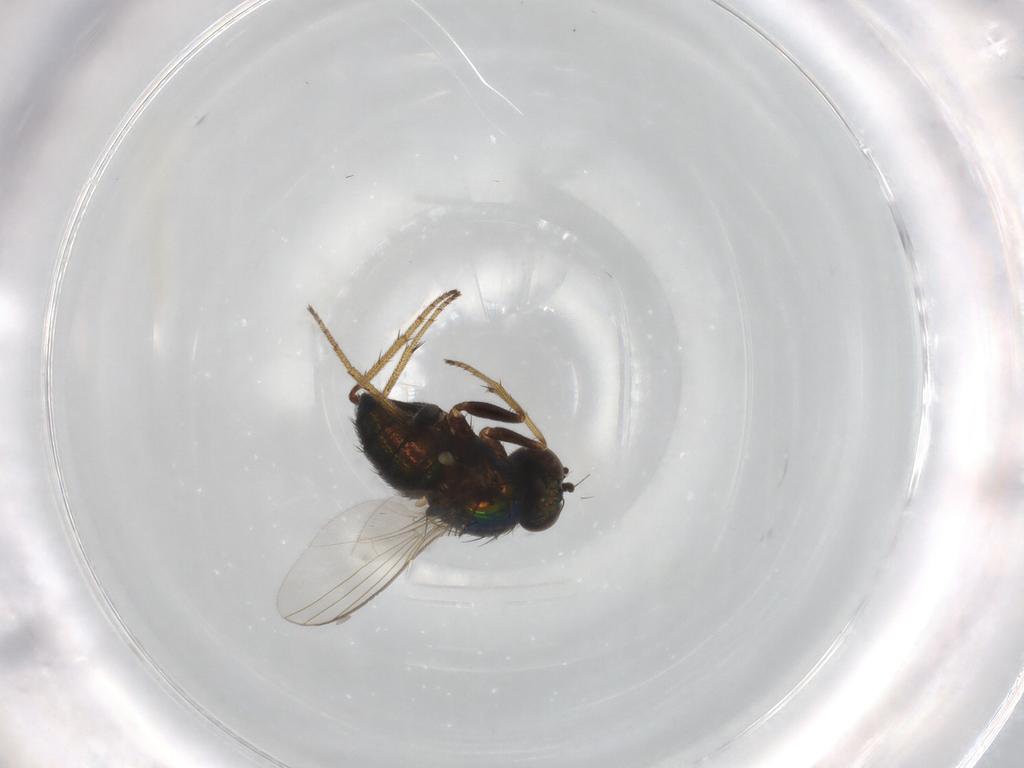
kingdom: Animalia
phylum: Arthropoda
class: Insecta
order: Diptera
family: Dolichopodidae
